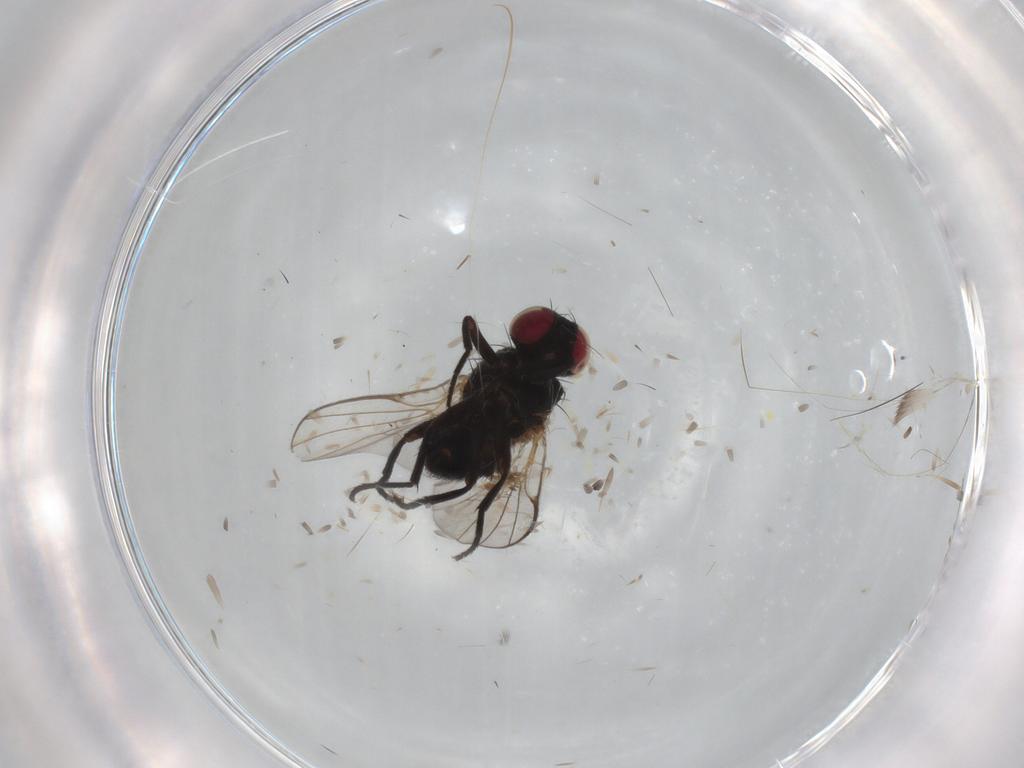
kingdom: Animalia
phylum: Arthropoda
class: Insecta
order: Diptera
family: Agromyzidae
